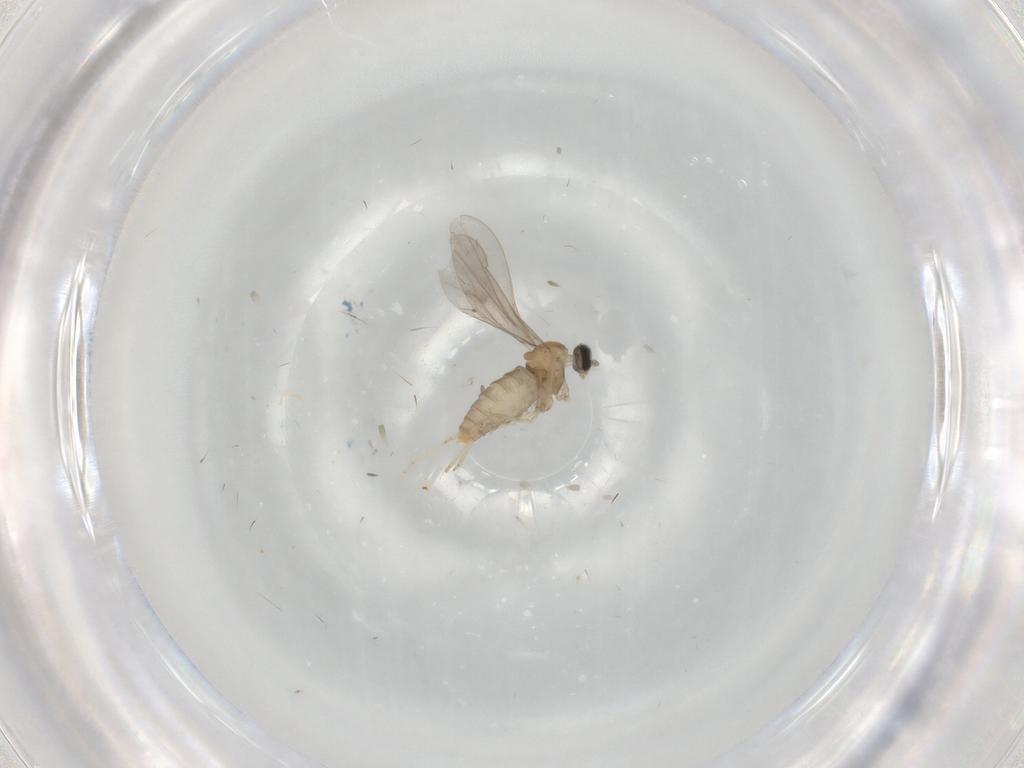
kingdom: Animalia
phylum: Arthropoda
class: Insecta
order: Diptera
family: Cecidomyiidae
